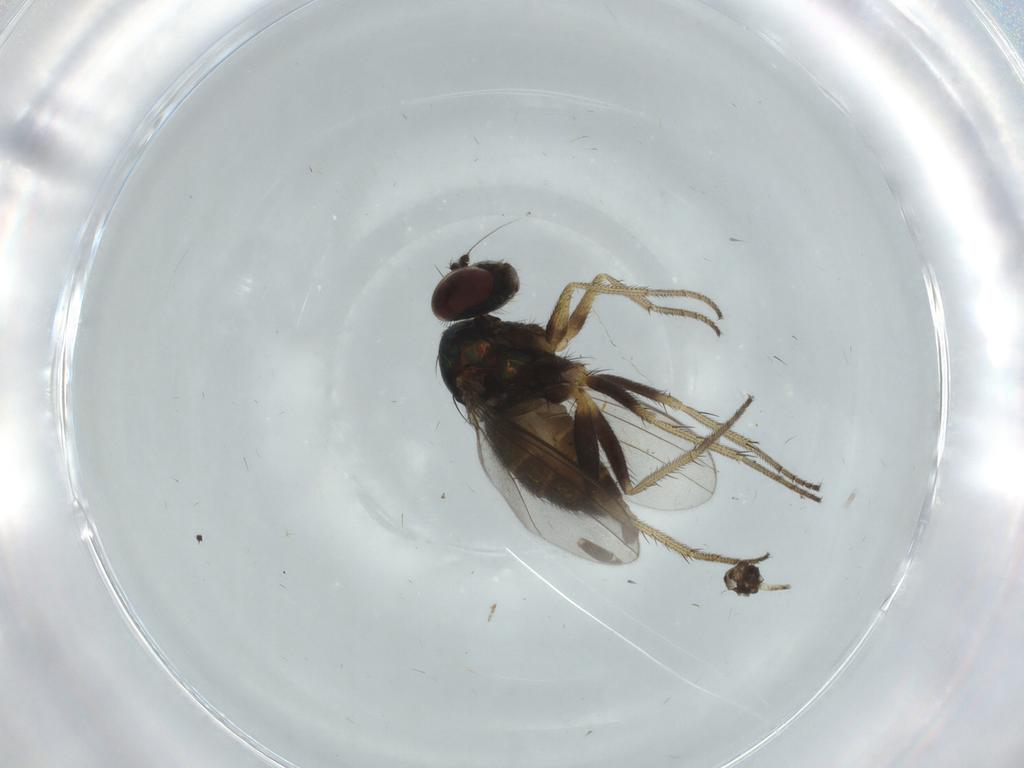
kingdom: Animalia
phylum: Arthropoda
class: Insecta
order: Diptera
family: Dolichopodidae
